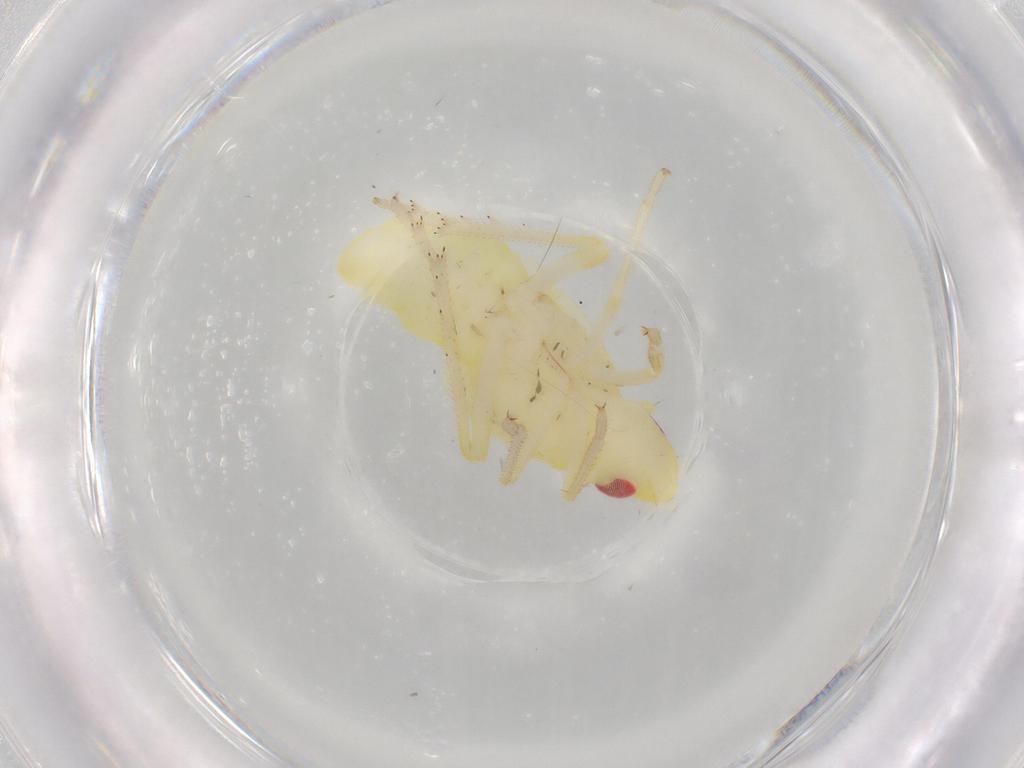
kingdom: Animalia
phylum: Arthropoda
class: Insecta
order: Hemiptera
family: Fulgoroidea_incertae_sedis
